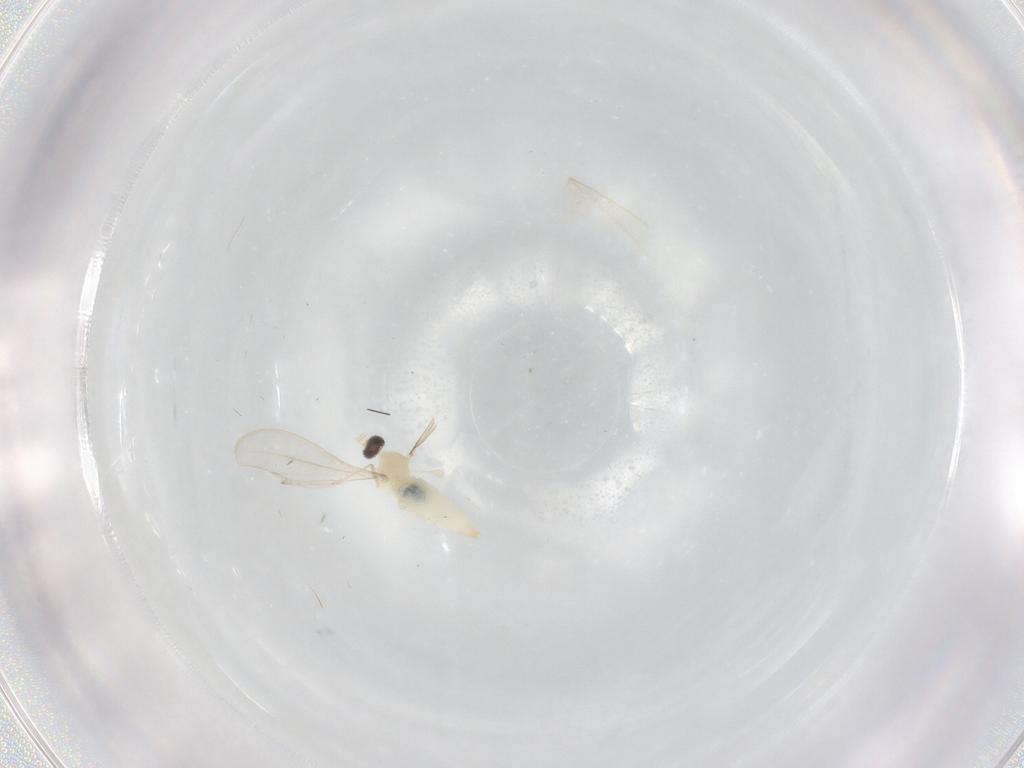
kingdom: Animalia
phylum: Arthropoda
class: Insecta
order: Diptera
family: Cecidomyiidae
